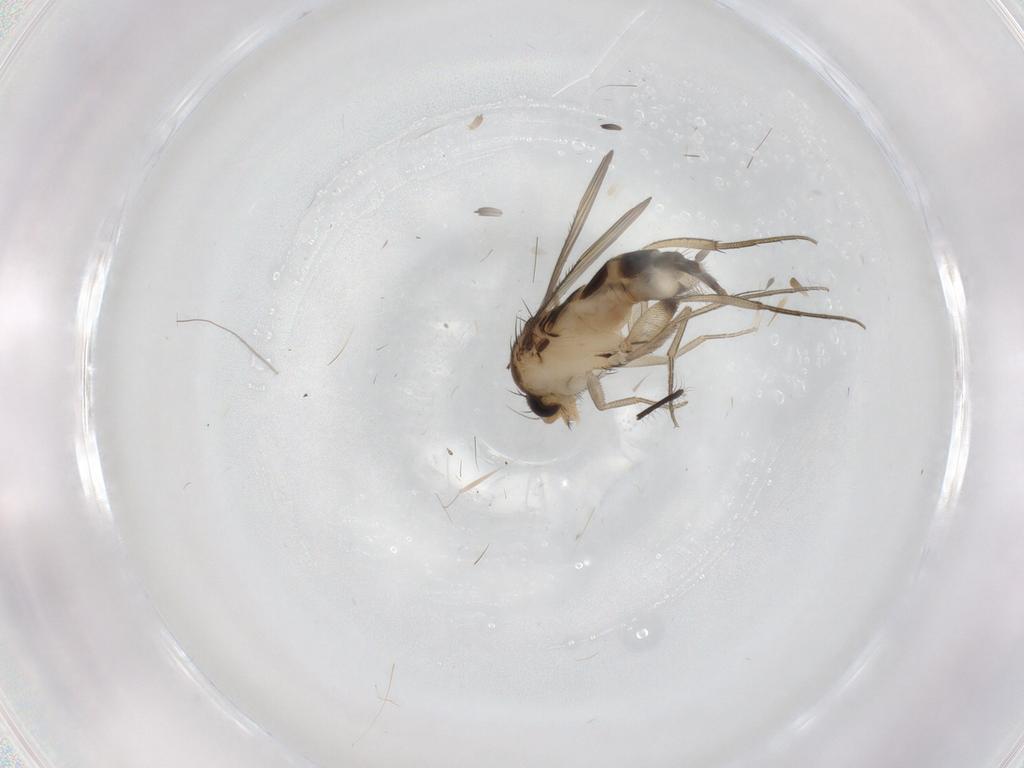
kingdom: Animalia
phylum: Arthropoda
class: Insecta
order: Diptera
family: Phoridae
